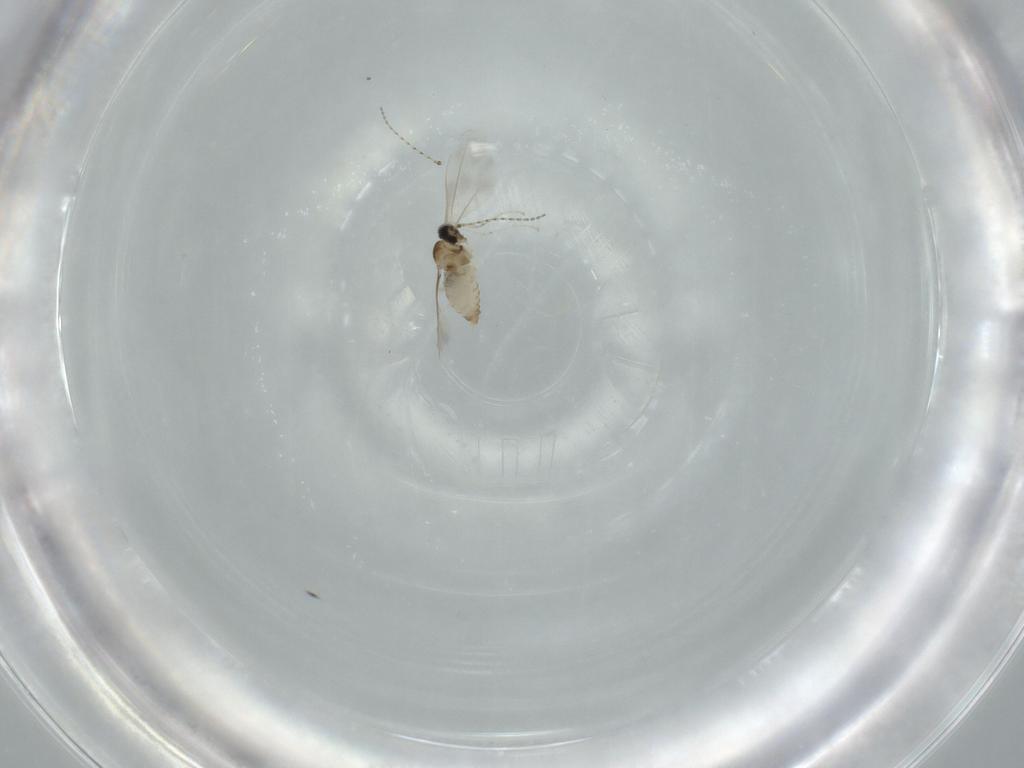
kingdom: Animalia
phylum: Arthropoda
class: Insecta
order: Diptera
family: Cecidomyiidae
